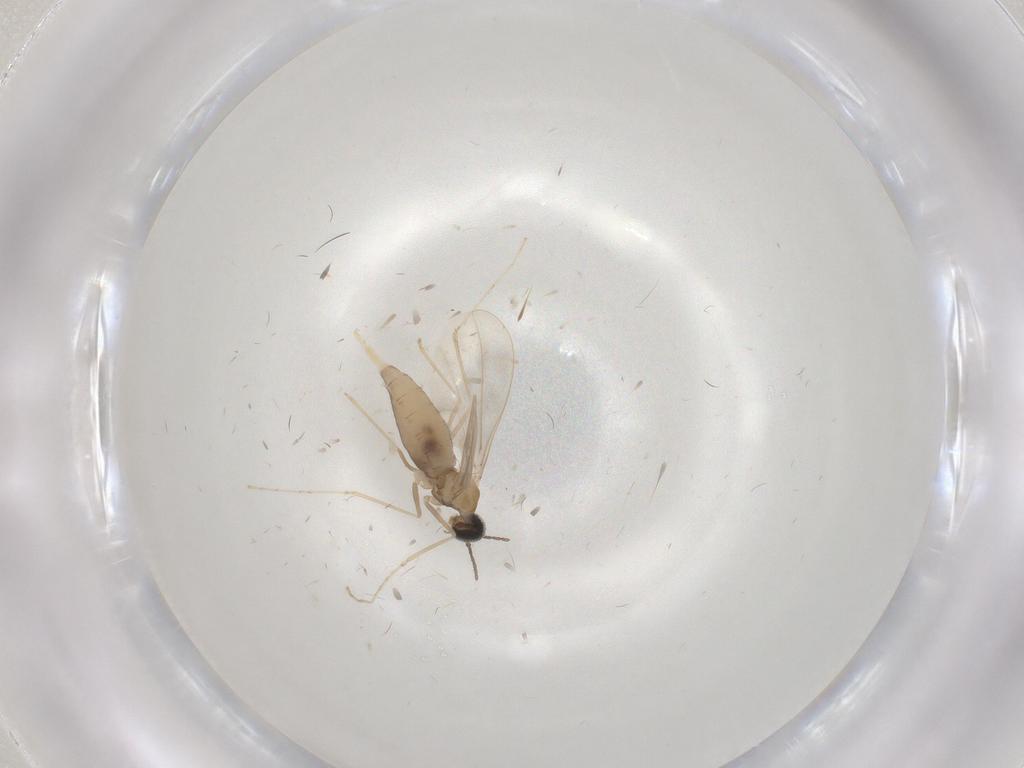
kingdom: Animalia
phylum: Arthropoda
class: Insecta
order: Diptera
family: Cecidomyiidae
